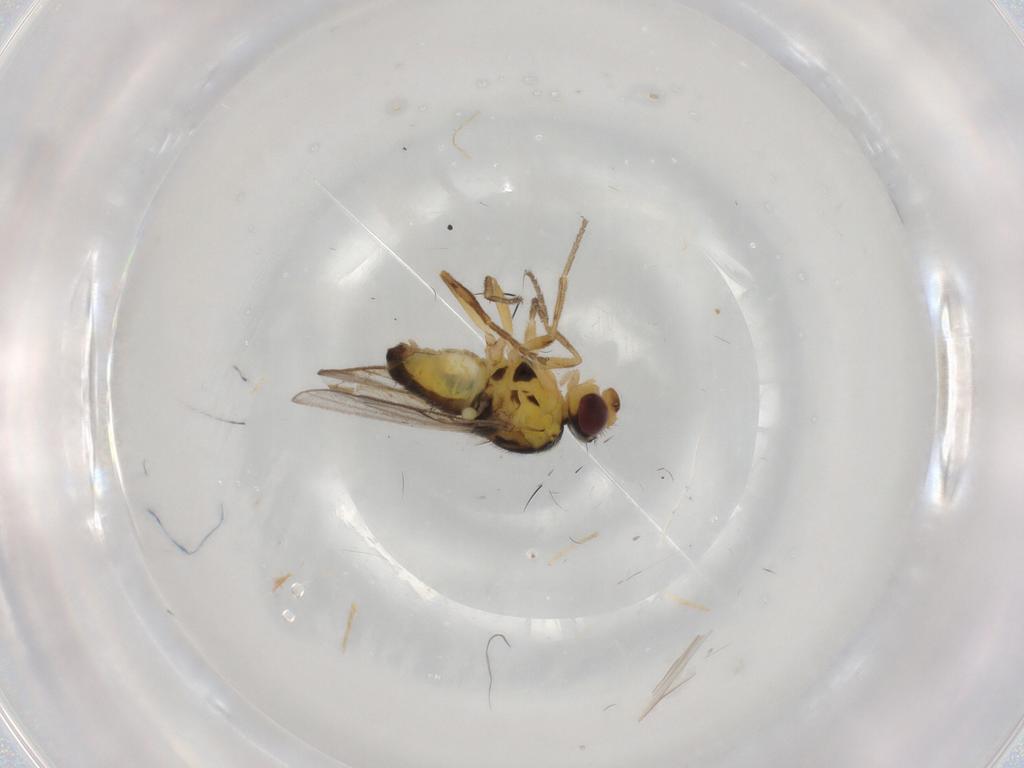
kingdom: Animalia
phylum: Arthropoda
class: Insecta
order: Diptera
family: Chloropidae
